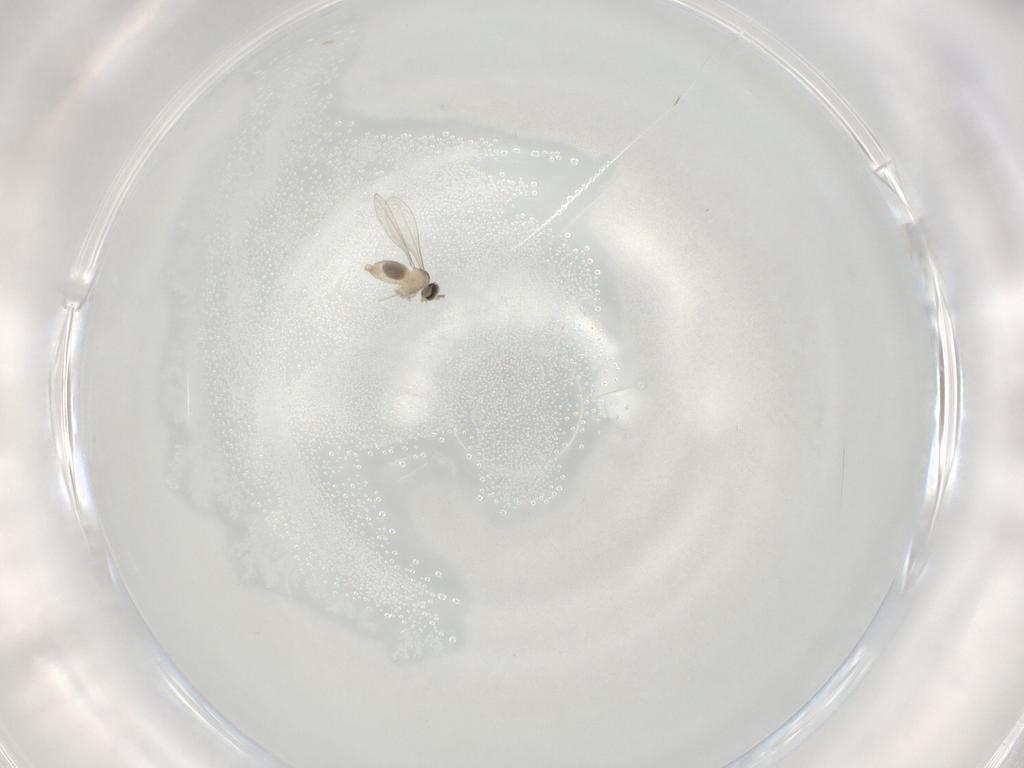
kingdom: Animalia
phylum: Arthropoda
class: Insecta
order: Diptera
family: Cecidomyiidae
